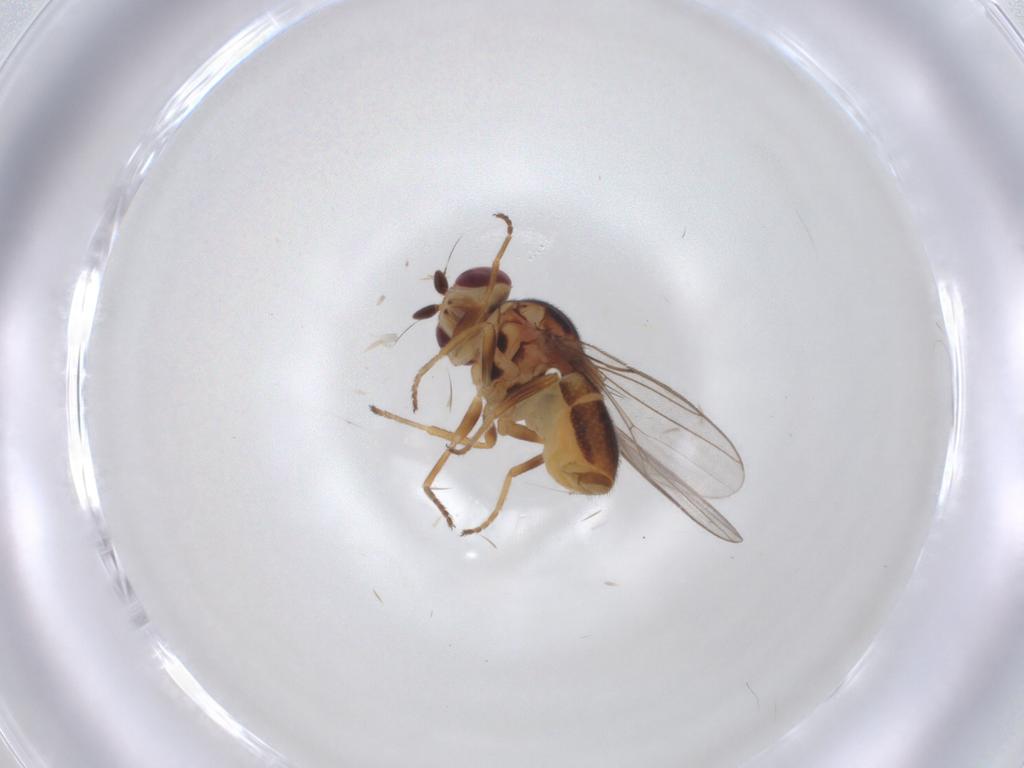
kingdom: Animalia
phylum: Arthropoda
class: Insecta
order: Diptera
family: Chloropidae
